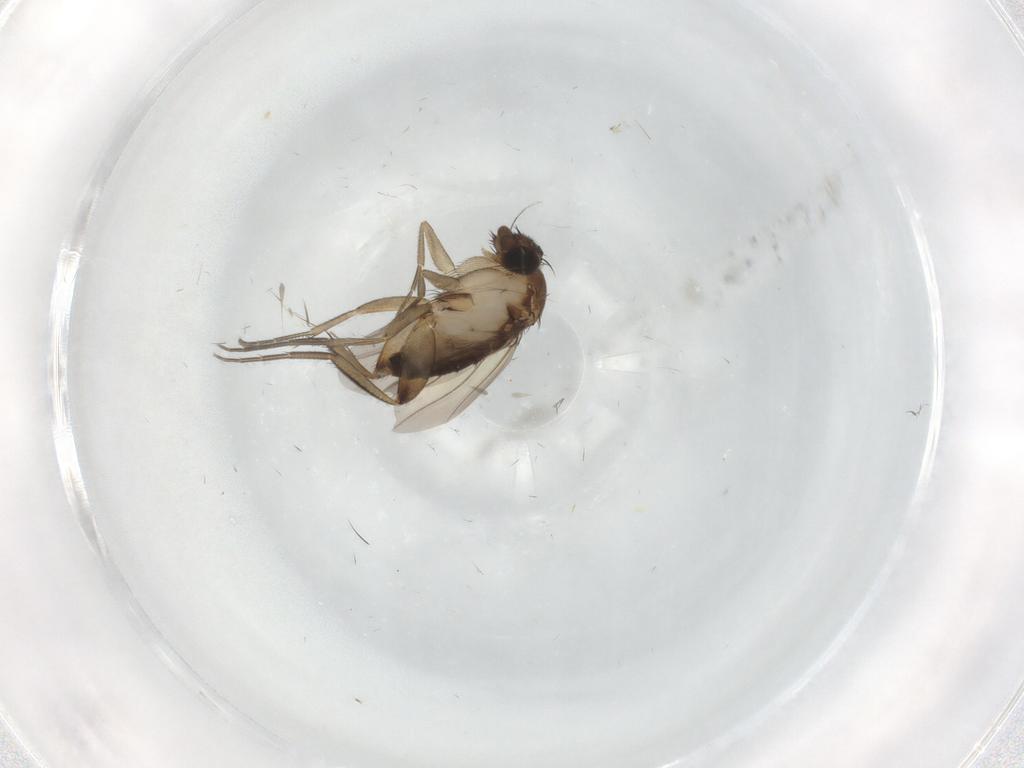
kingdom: Animalia
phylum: Arthropoda
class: Insecta
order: Diptera
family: Phoridae
